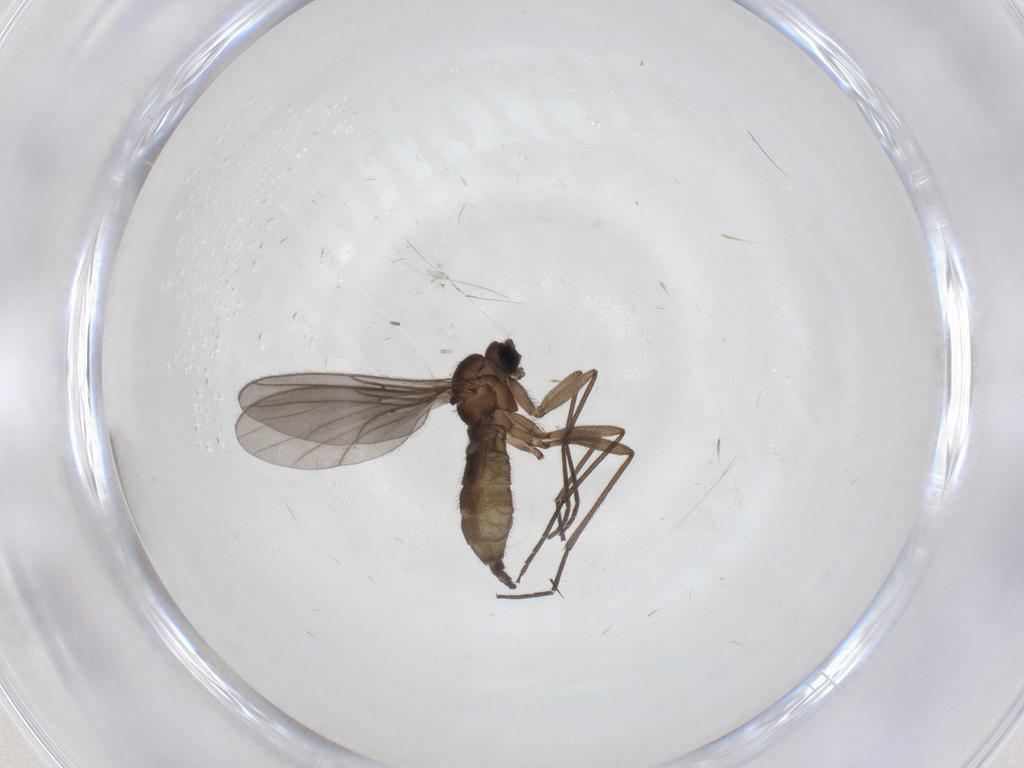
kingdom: Animalia
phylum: Arthropoda
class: Insecta
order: Diptera
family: Sciaridae
